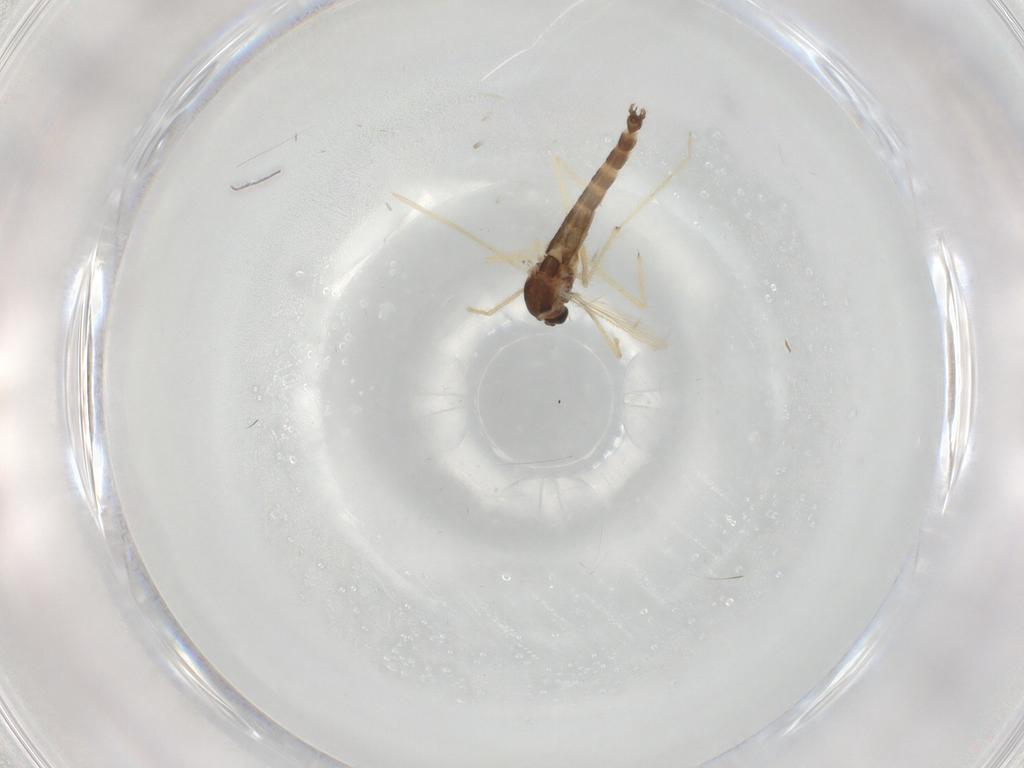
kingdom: Animalia
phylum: Arthropoda
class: Insecta
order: Diptera
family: Chironomidae
